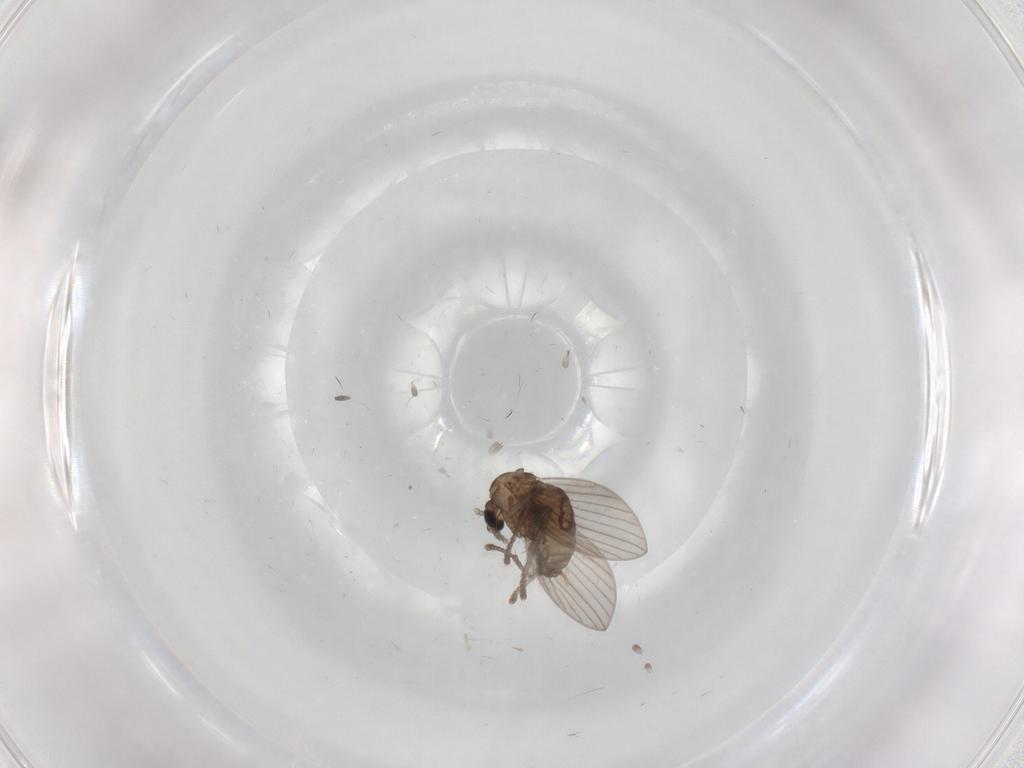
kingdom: Animalia
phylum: Arthropoda
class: Insecta
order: Diptera
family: Psychodidae
